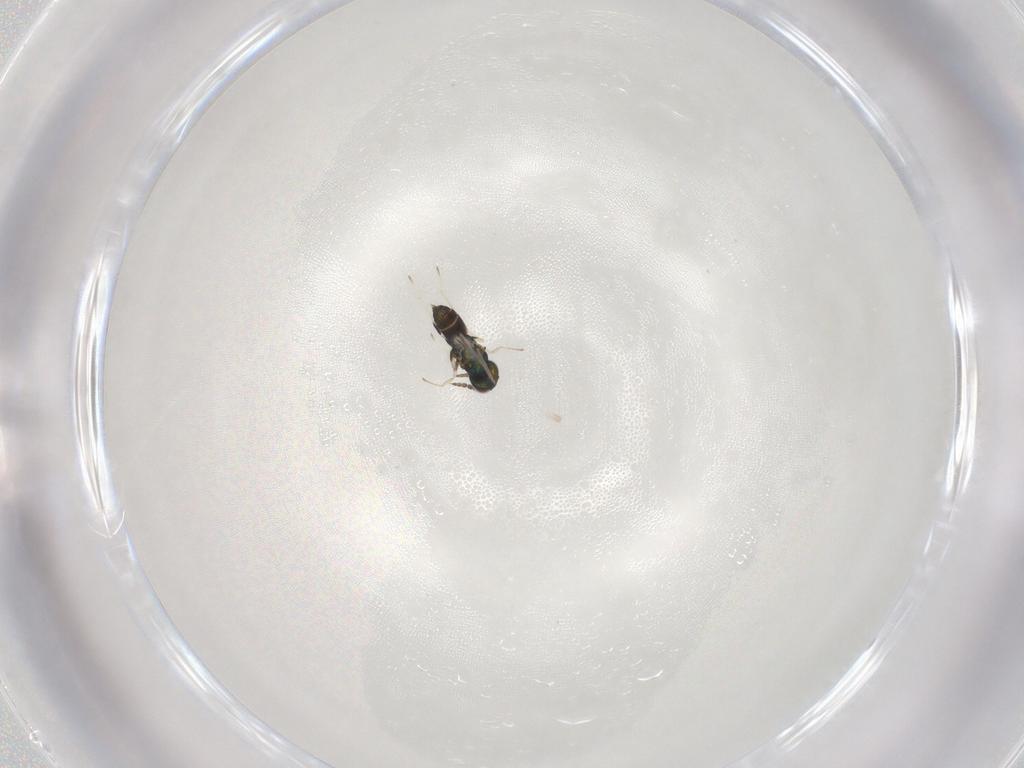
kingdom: Animalia
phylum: Arthropoda
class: Insecta
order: Hymenoptera
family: Eulophidae
